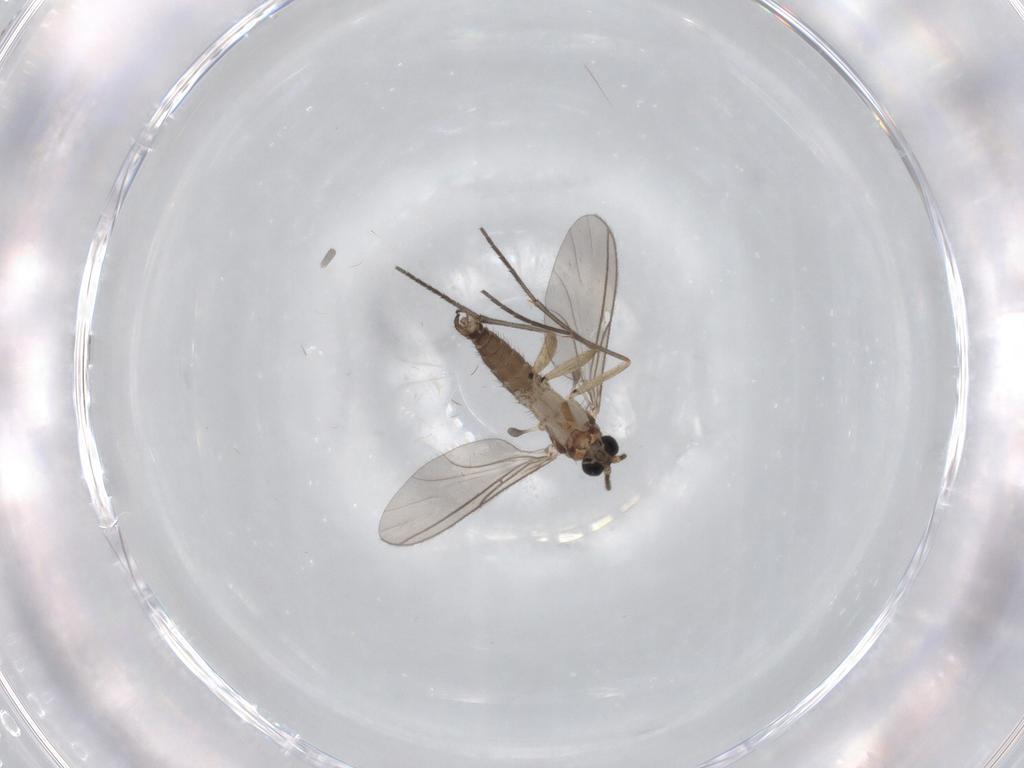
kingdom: Animalia
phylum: Arthropoda
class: Insecta
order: Diptera
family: Sciaridae
